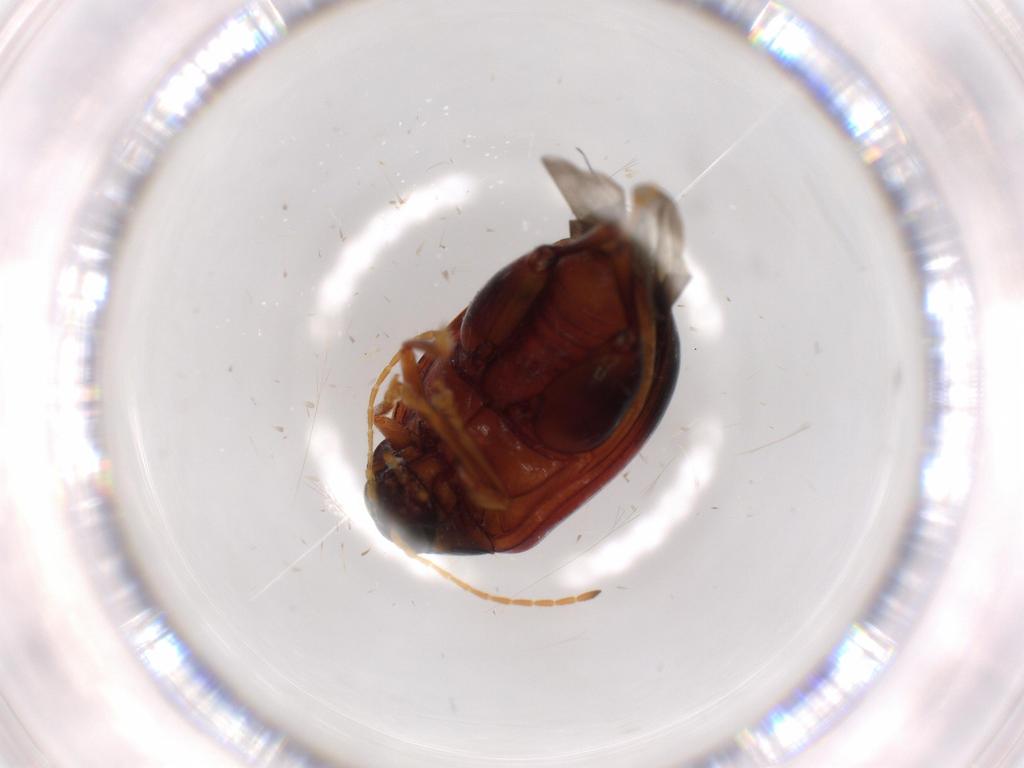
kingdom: Animalia
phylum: Arthropoda
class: Insecta
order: Coleoptera
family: Chrysomelidae
